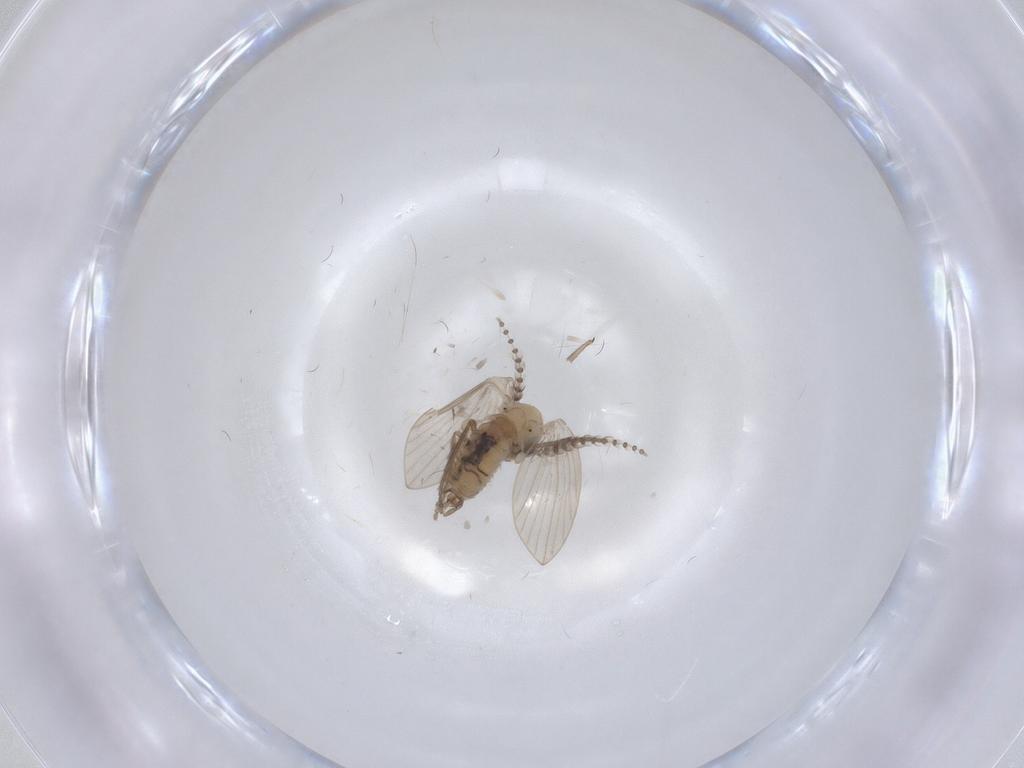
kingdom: Animalia
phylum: Arthropoda
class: Insecta
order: Diptera
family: Psychodidae
